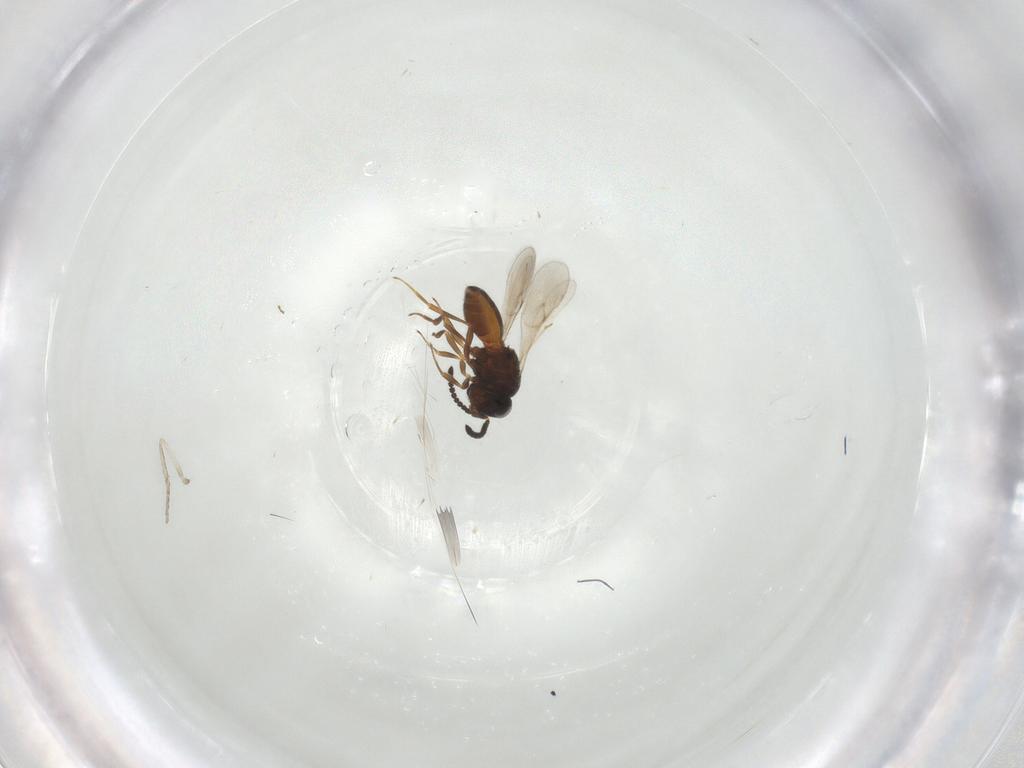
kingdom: Animalia
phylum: Arthropoda
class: Insecta
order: Hymenoptera
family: Scelionidae
